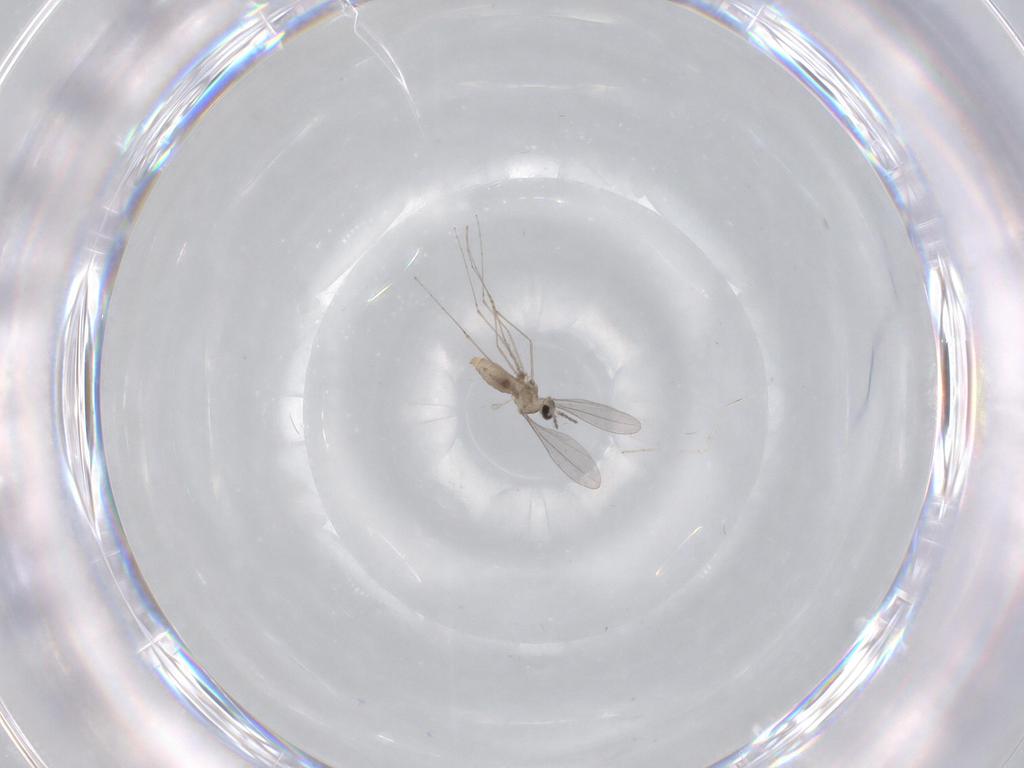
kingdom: Animalia
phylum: Arthropoda
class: Insecta
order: Diptera
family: Cecidomyiidae
